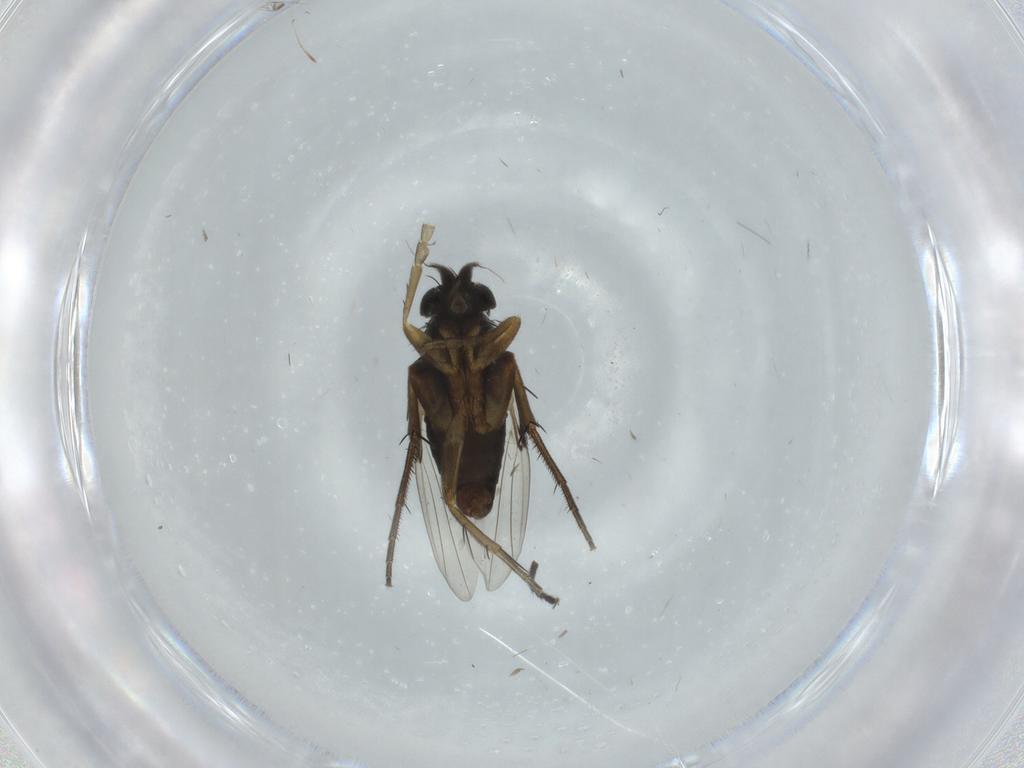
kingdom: Animalia
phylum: Arthropoda
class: Insecta
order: Diptera
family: Phoridae
